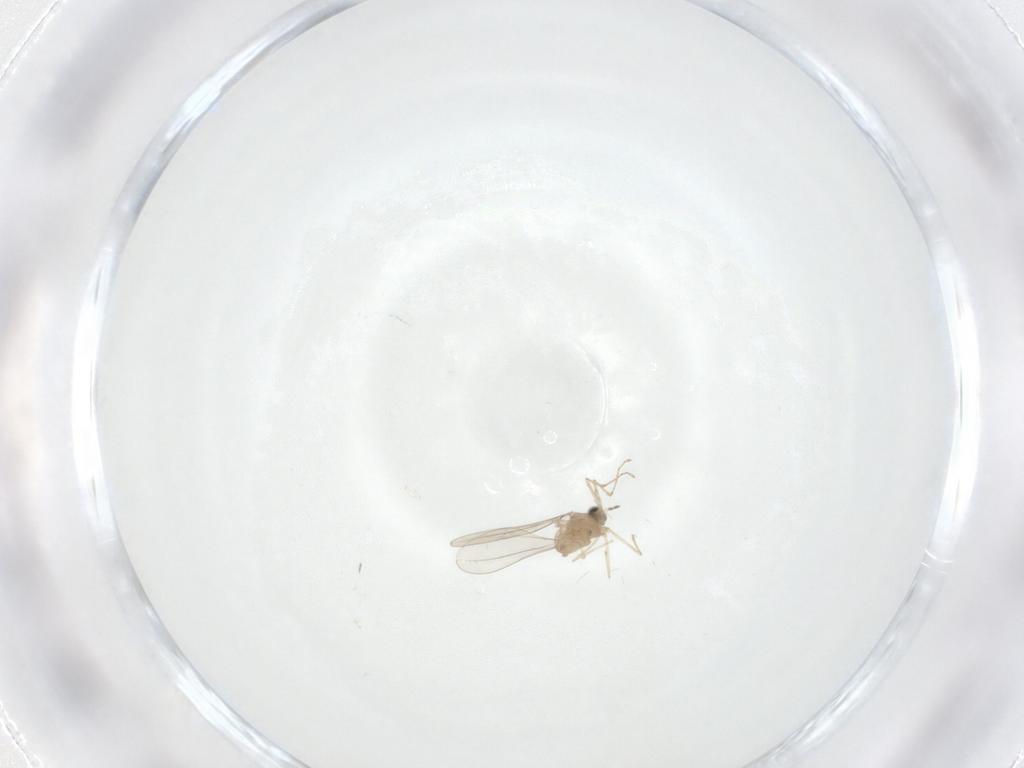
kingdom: Animalia
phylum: Arthropoda
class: Insecta
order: Diptera
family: Cecidomyiidae
